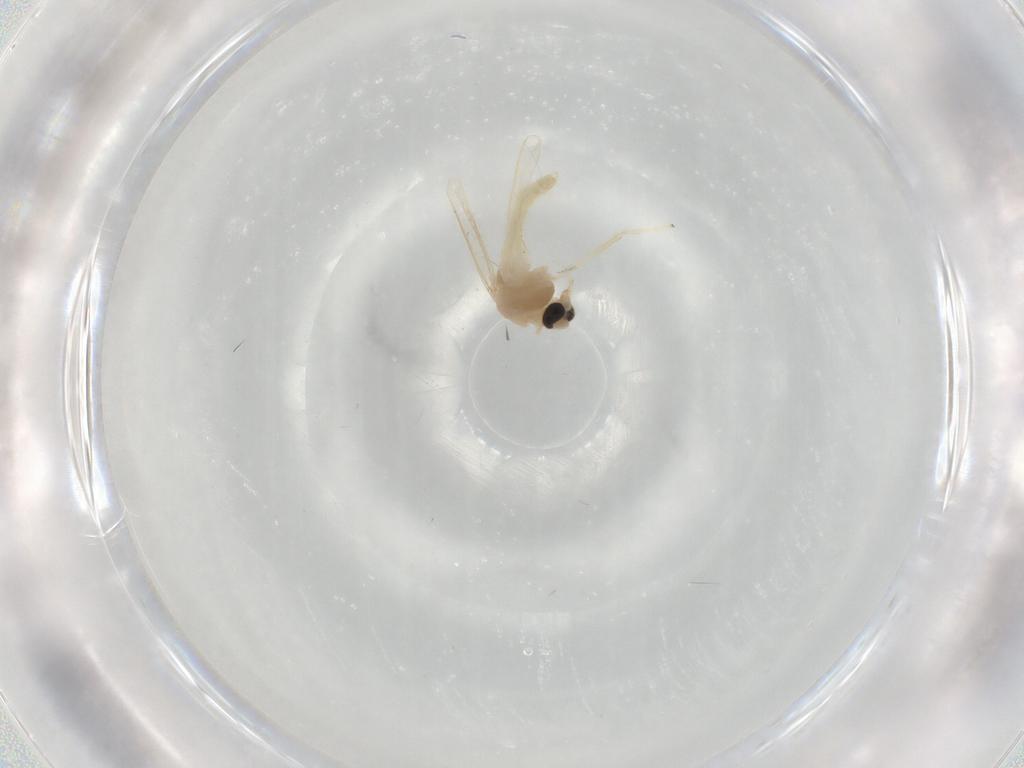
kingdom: Animalia
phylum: Arthropoda
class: Insecta
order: Diptera
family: Chironomidae
